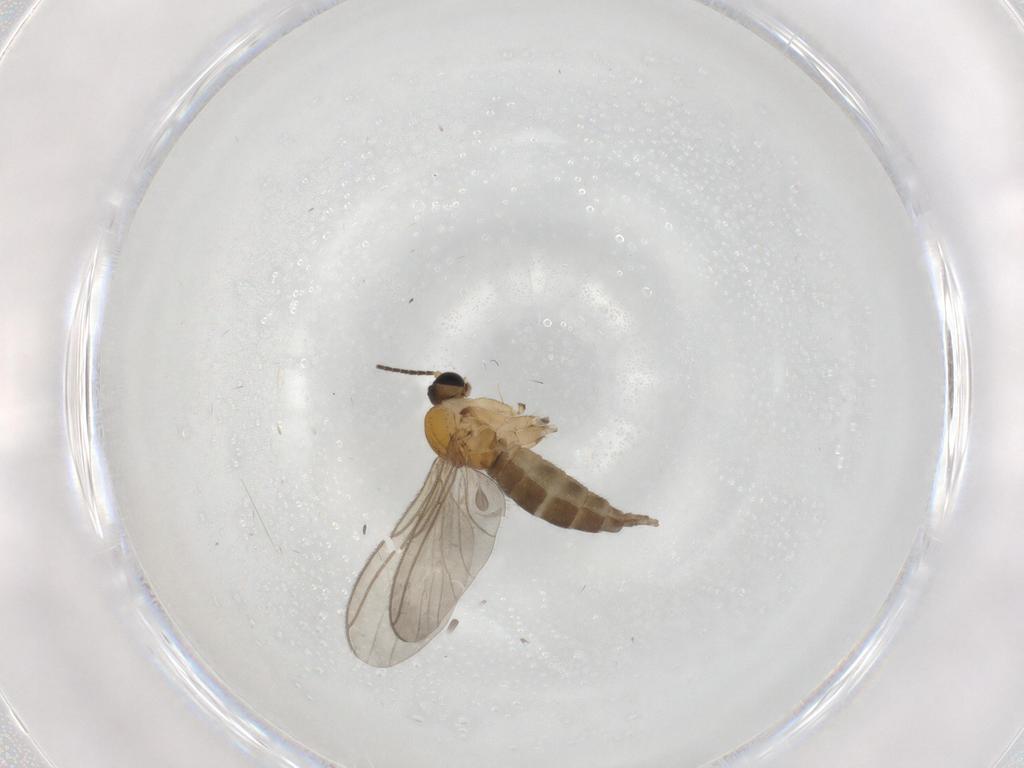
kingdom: Animalia
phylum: Arthropoda
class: Insecta
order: Diptera
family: Sciaridae
